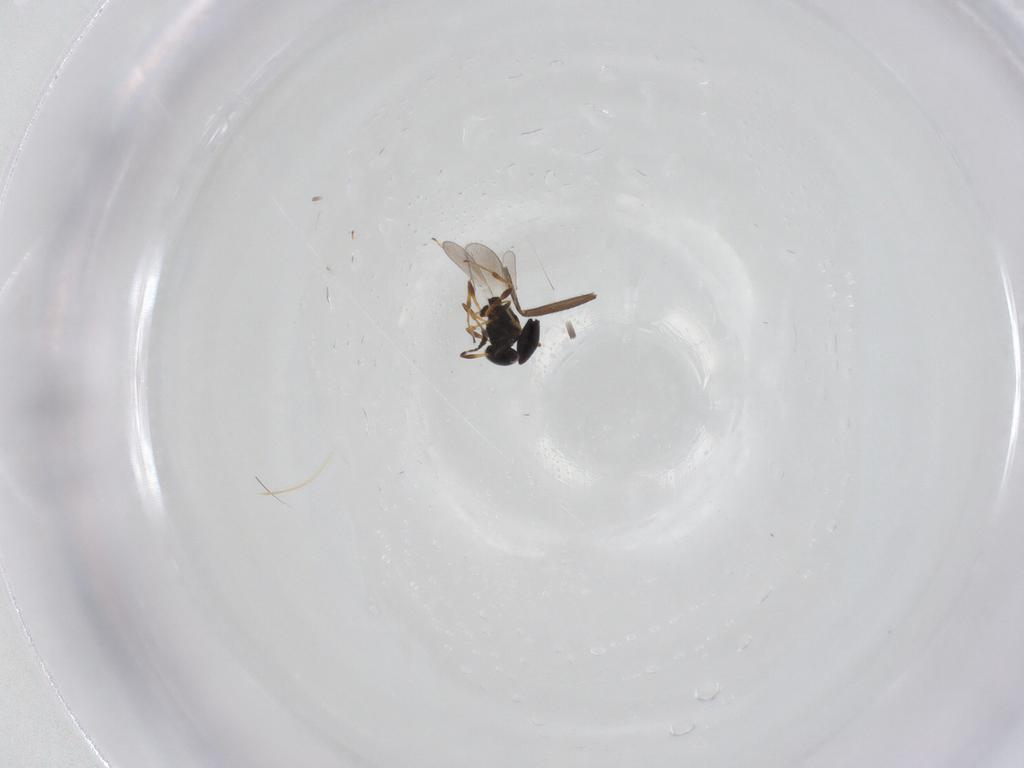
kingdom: Animalia
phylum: Arthropoda
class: Insecta
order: Hymenoptera
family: Platygastridae
